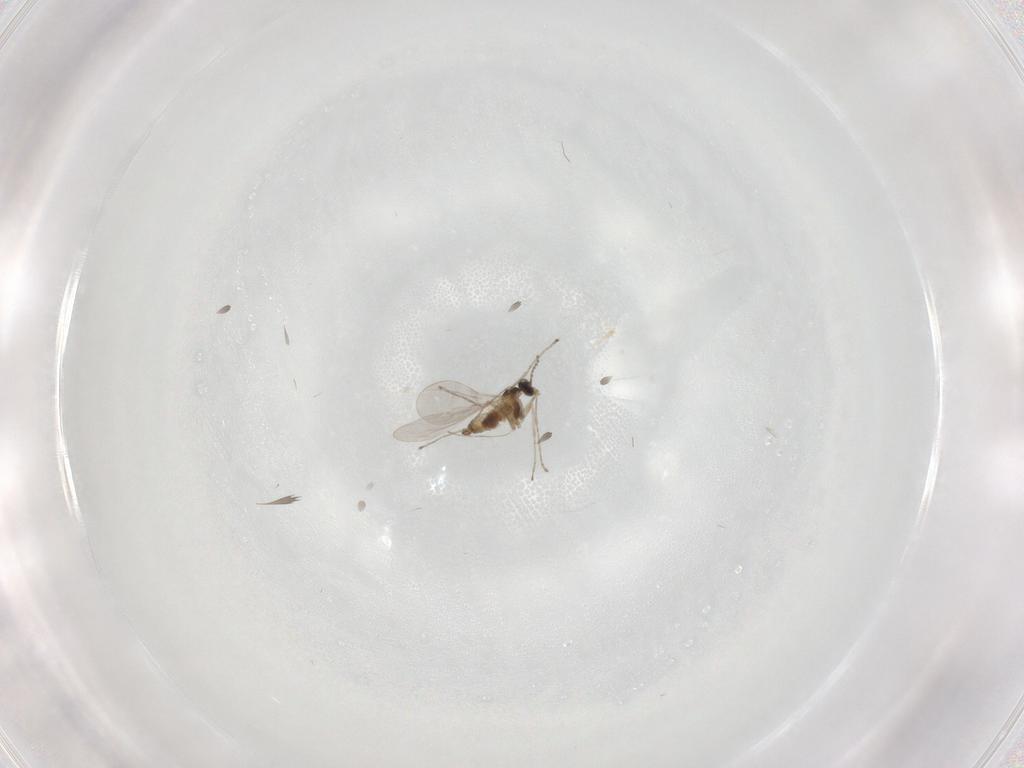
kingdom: Animalia
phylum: Arthropoda
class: Insecta
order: Hymenoptera
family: Formicidae
